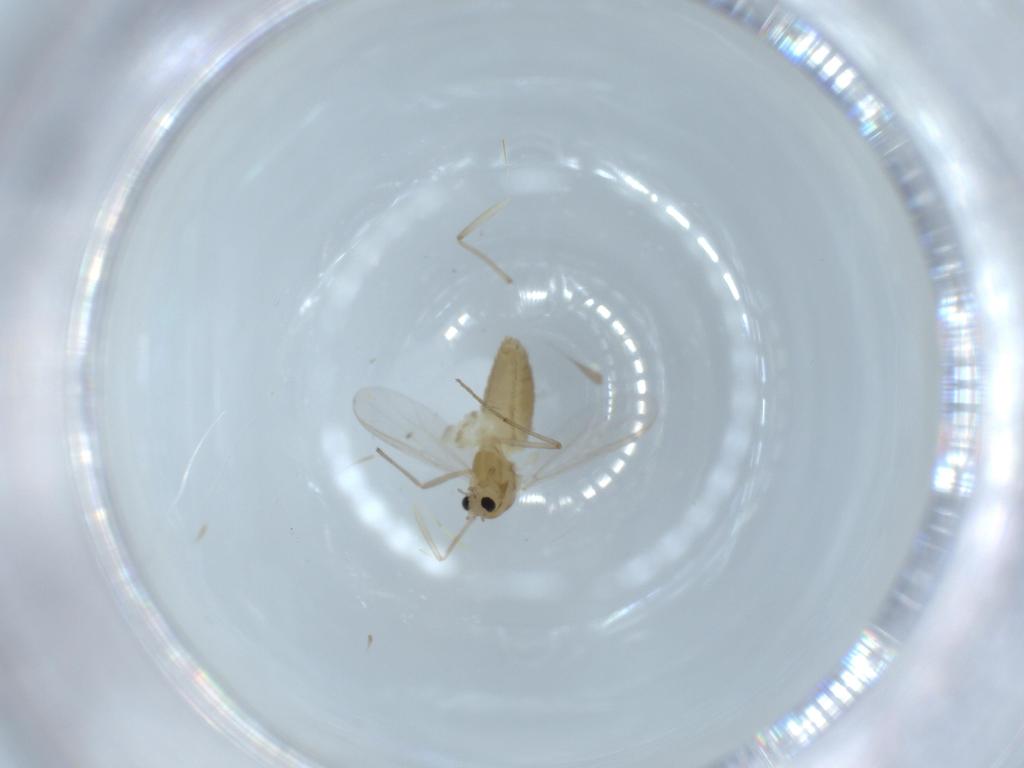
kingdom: Animalia
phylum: Arthropoda
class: Insecta
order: Diptera
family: Chironomidae
